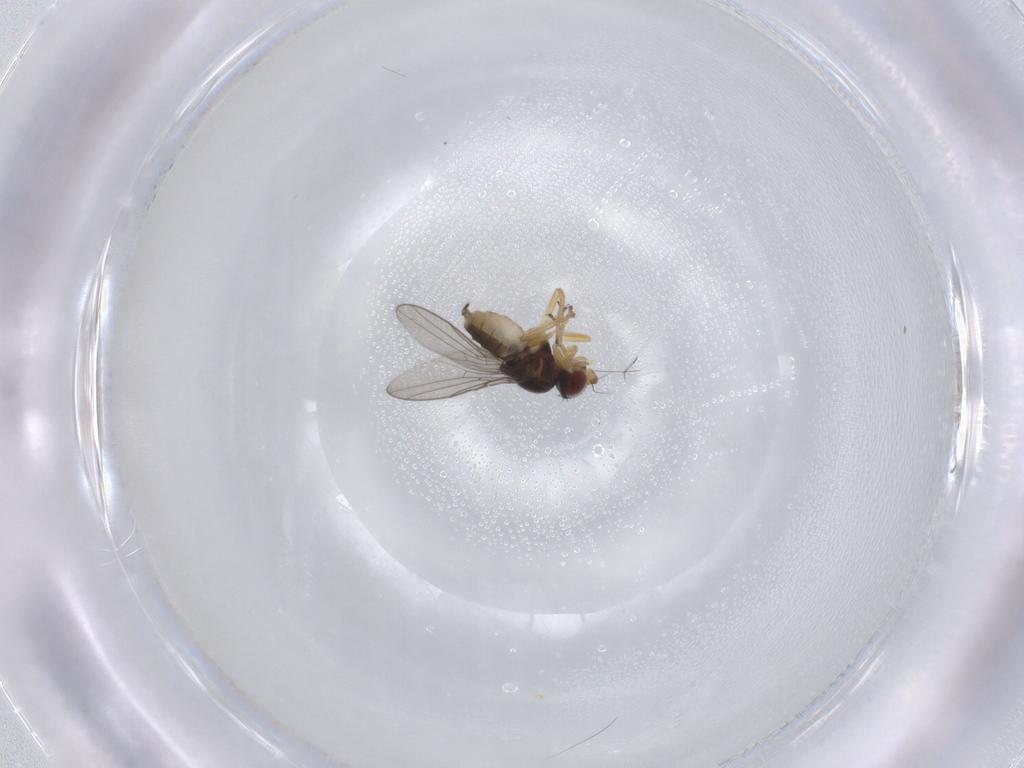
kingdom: Animalia
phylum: Arthropoda
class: Insecta
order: Diptera
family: Chloropidae
